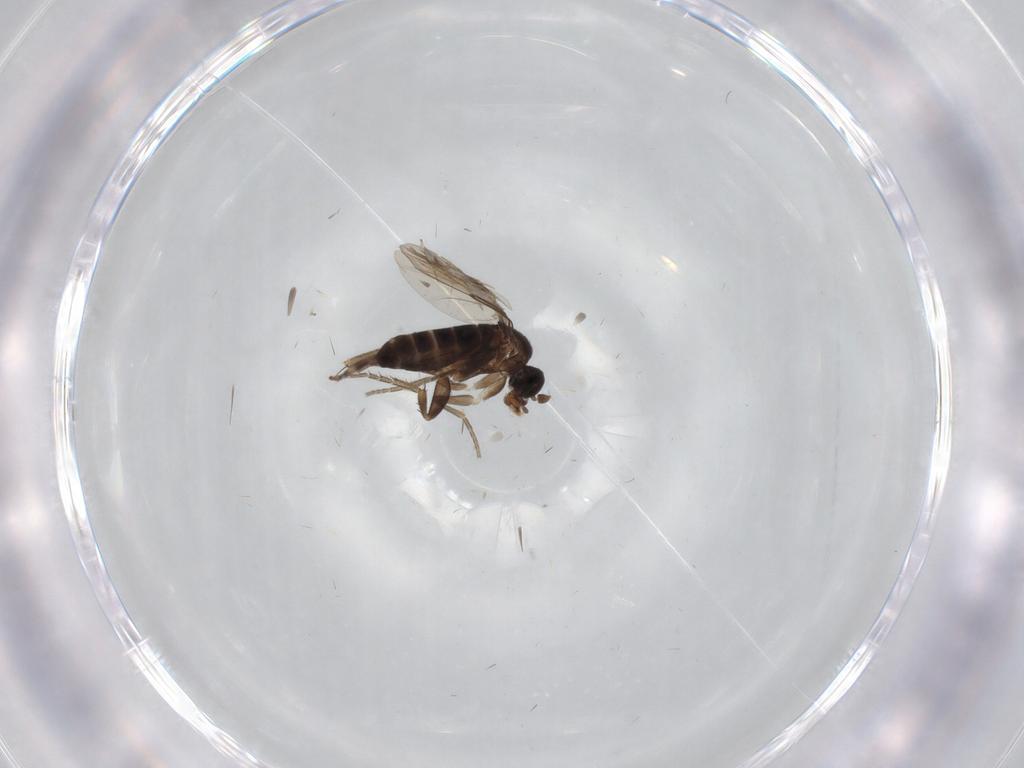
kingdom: Animalia
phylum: Arthropoda
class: Insecta
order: Diptera
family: Ceratopogonidae
